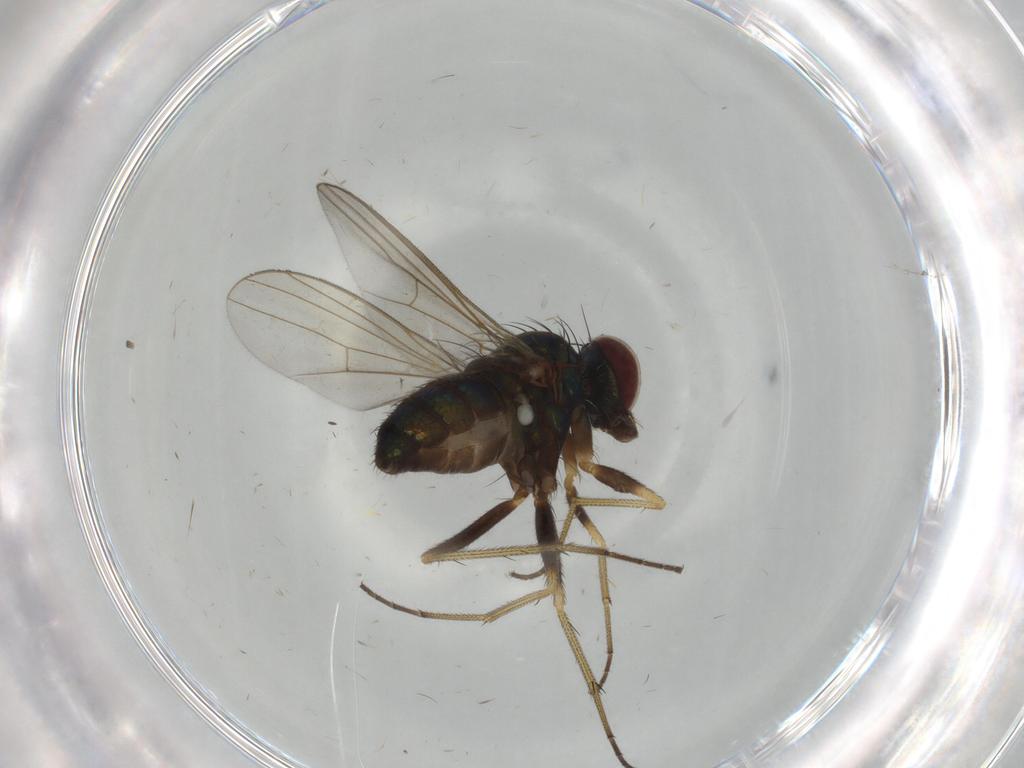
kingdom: Animalia
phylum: Arthropoda
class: Insecta
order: Diptera
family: Dolichopodidae
